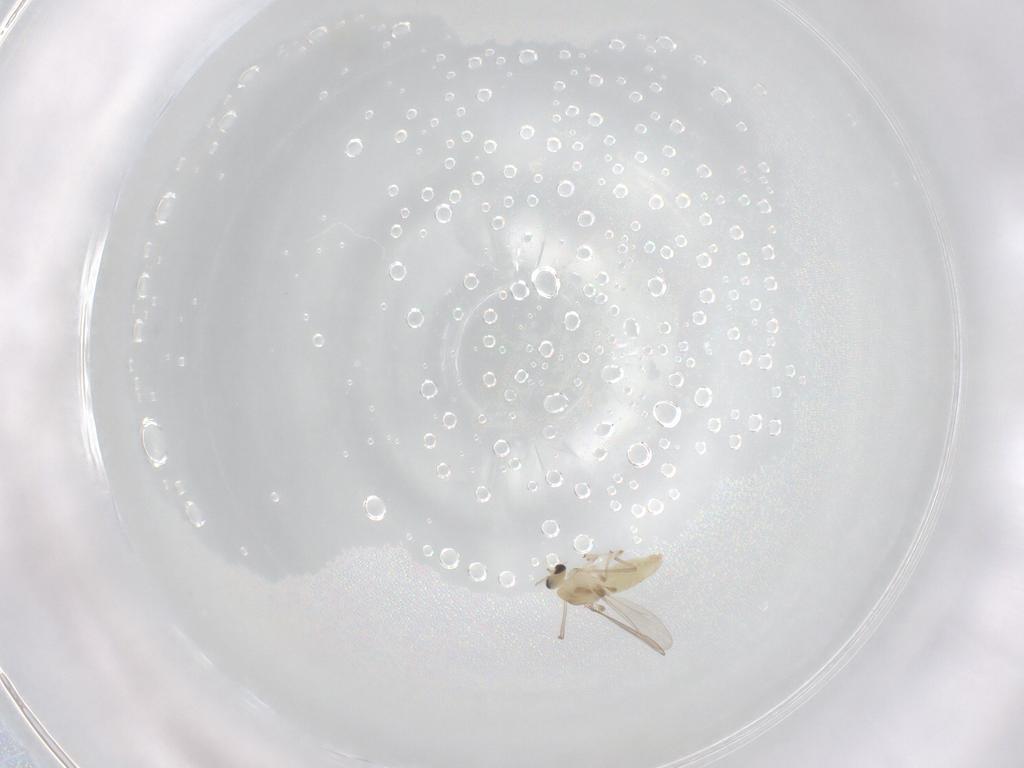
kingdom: Animalia
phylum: Arthropoda
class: Insecta
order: Diptera
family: Chironomidae
